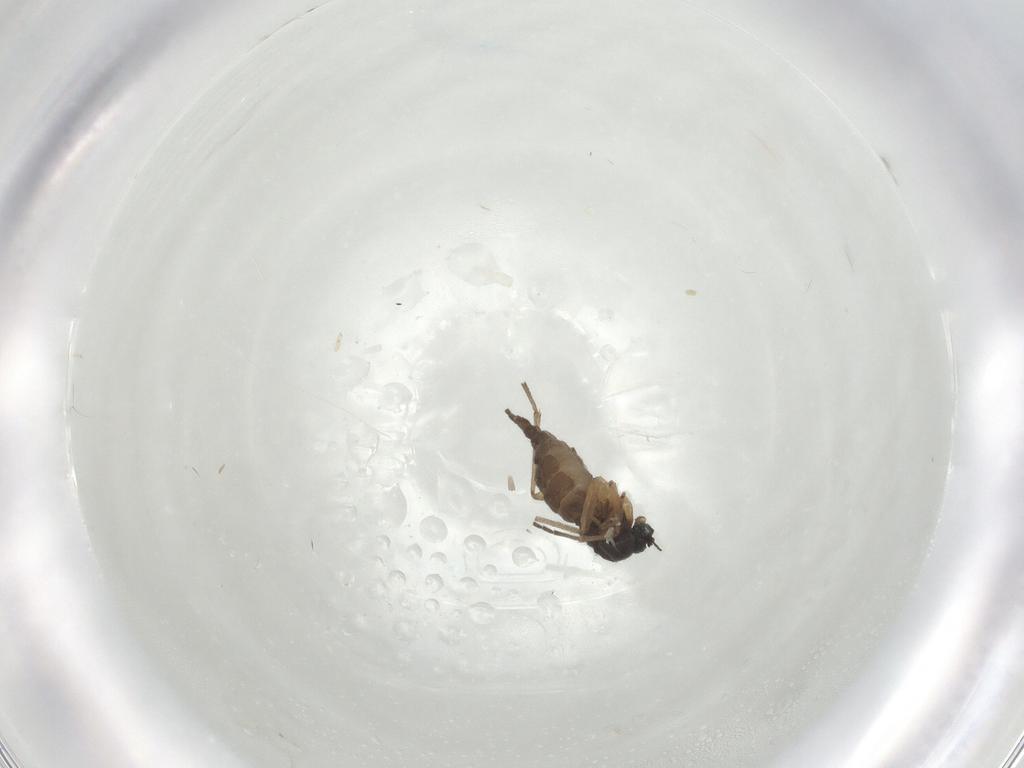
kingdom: Animalia
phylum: Arthropoda
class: Insecta
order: Diptera
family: Sciaridae
